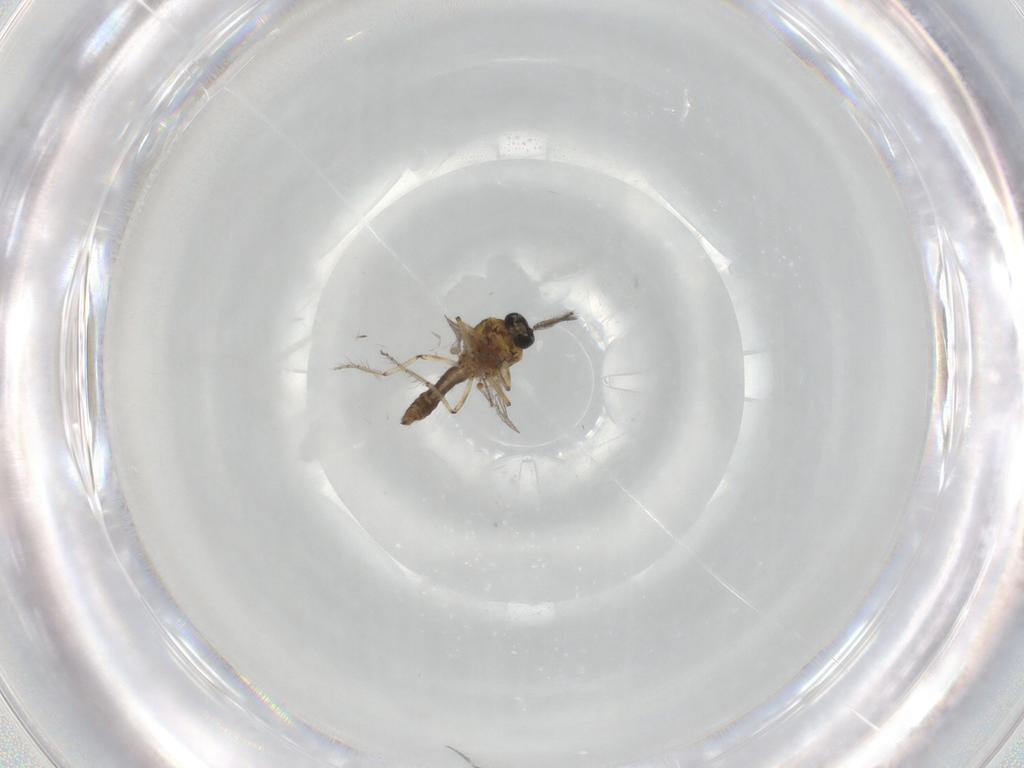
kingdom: Animalia
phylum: Arthropoda
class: Insecta
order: Diptera
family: Ceratopogonidae
